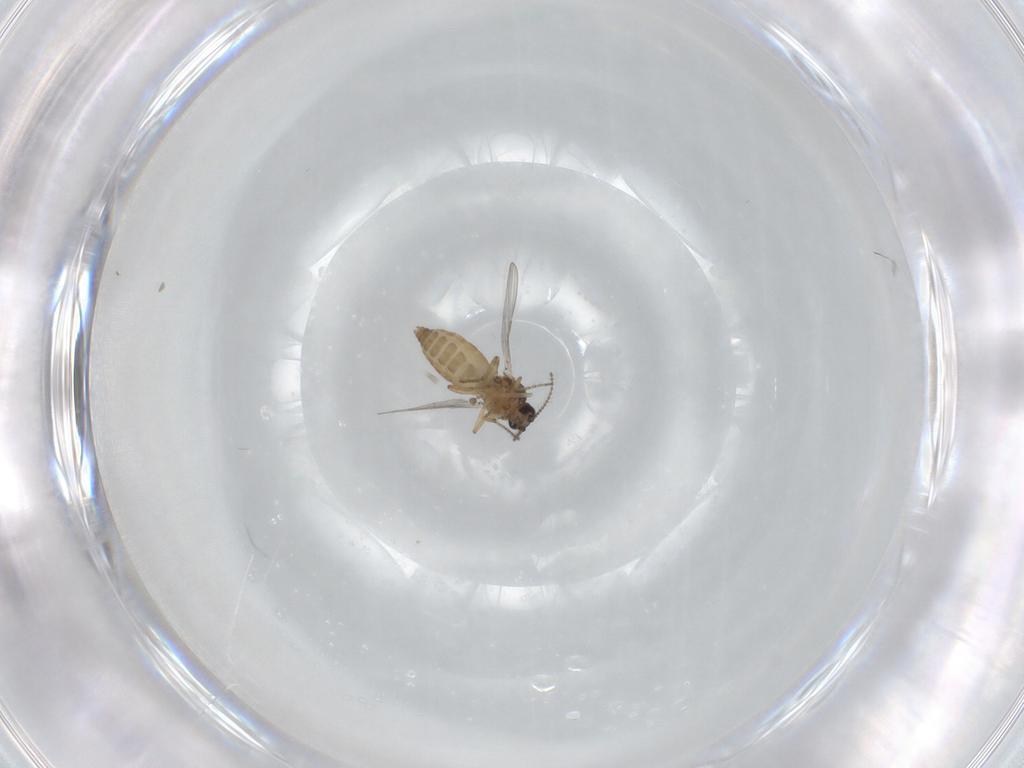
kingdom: Animalia
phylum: Arthropoda
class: Insecta
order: Diptera
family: Ceratopogonidae
